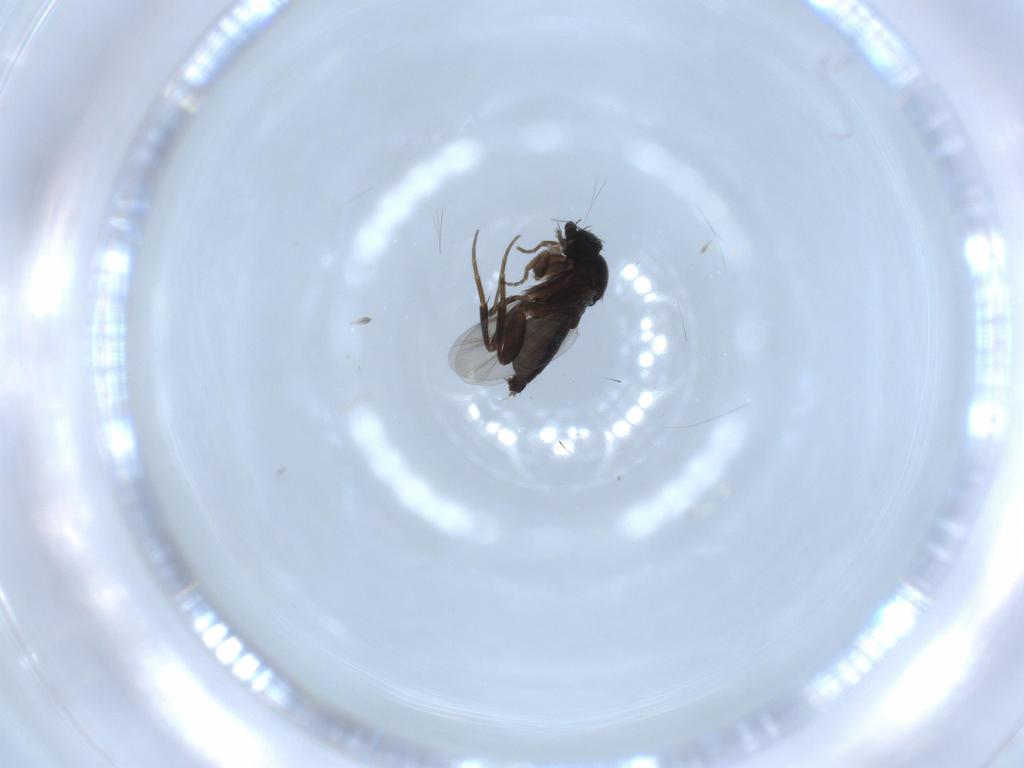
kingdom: Animalia
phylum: Arthropoda
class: Insecta
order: Diptera
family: Phoridae
